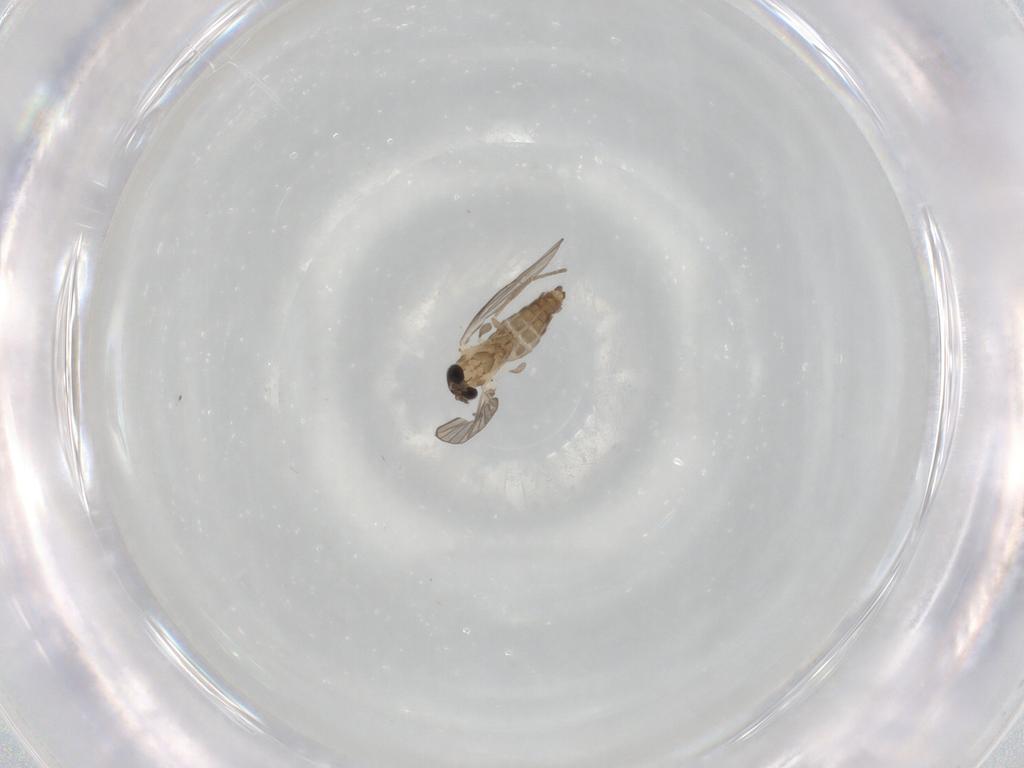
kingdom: Animalia
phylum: Arthropoda
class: Insecta
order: Diptera
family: Psychodidae
